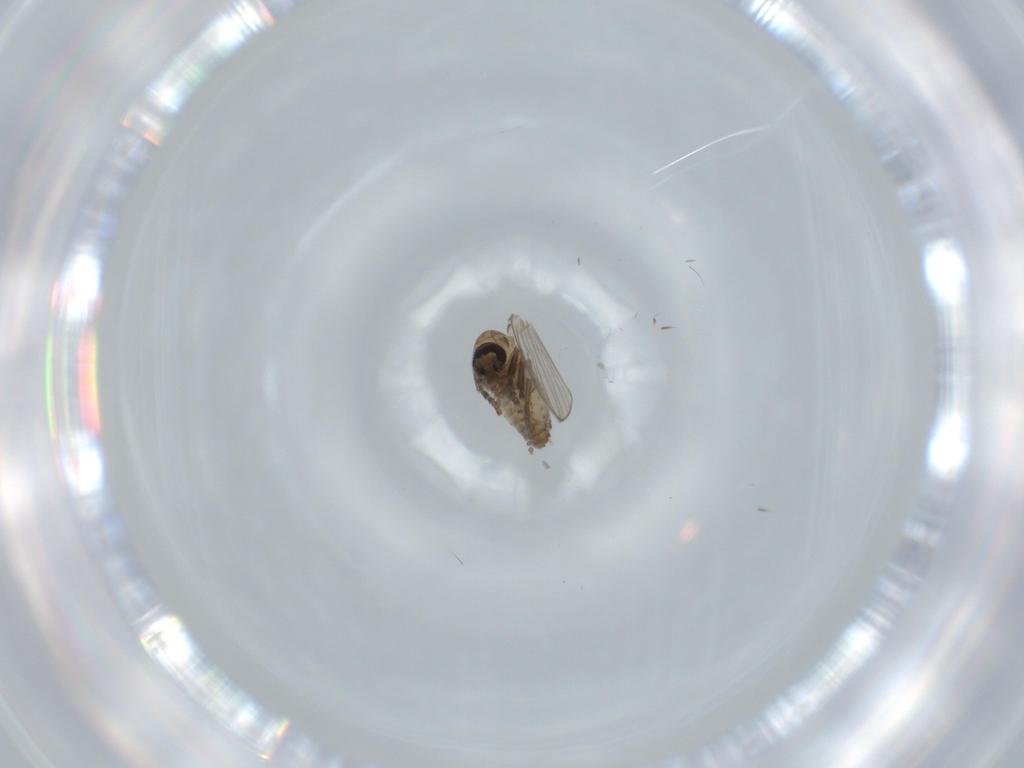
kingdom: Animalia
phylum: Arthropoda
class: Insecta
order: Diptera
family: Psychodidae
